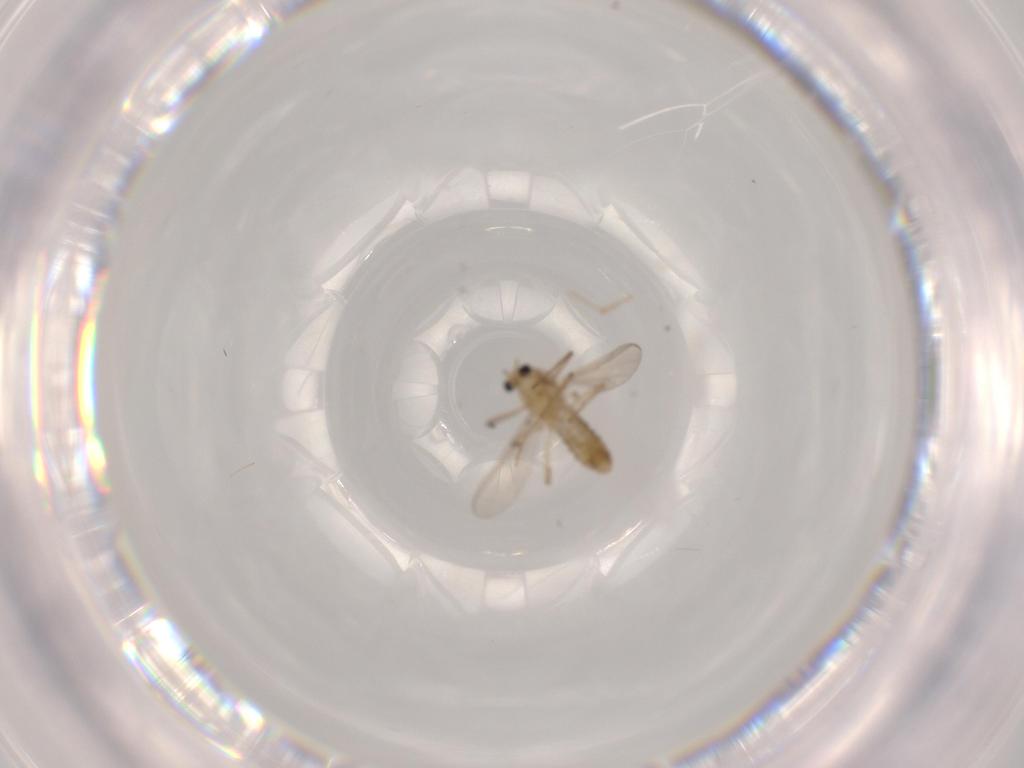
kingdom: Animalia
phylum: Arthropoda
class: Insecta
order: Diptera
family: Chironomidae
